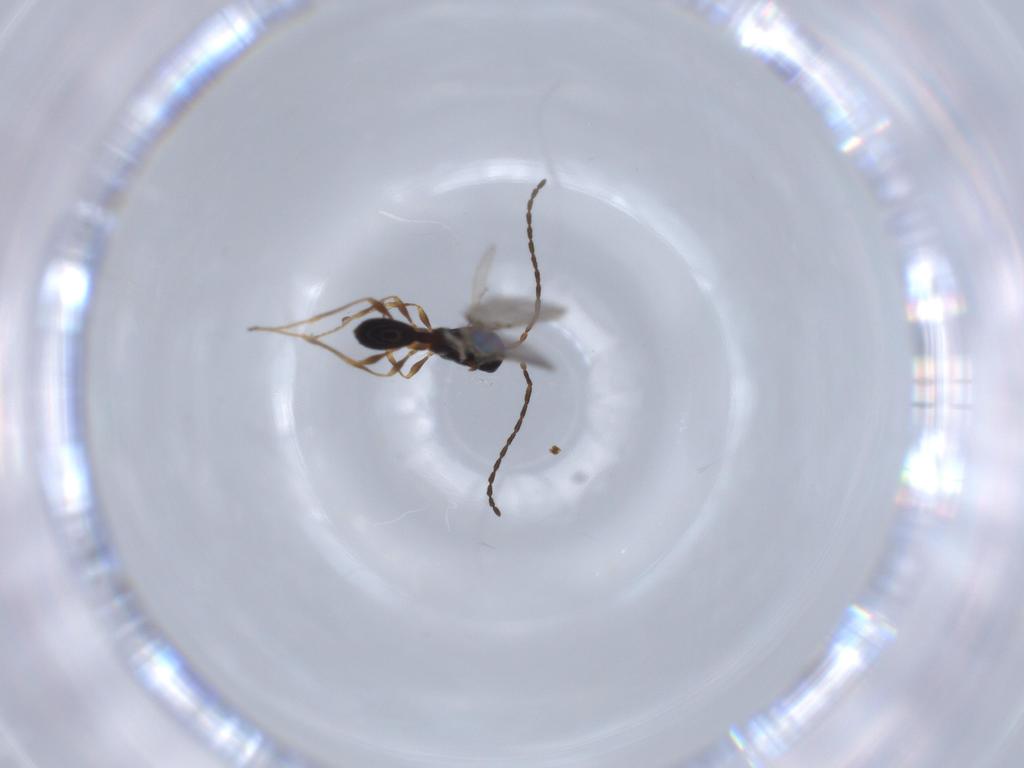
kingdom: Animalia
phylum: Arthropoda
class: Insecta
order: Hymenoptera
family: Diapriidae
